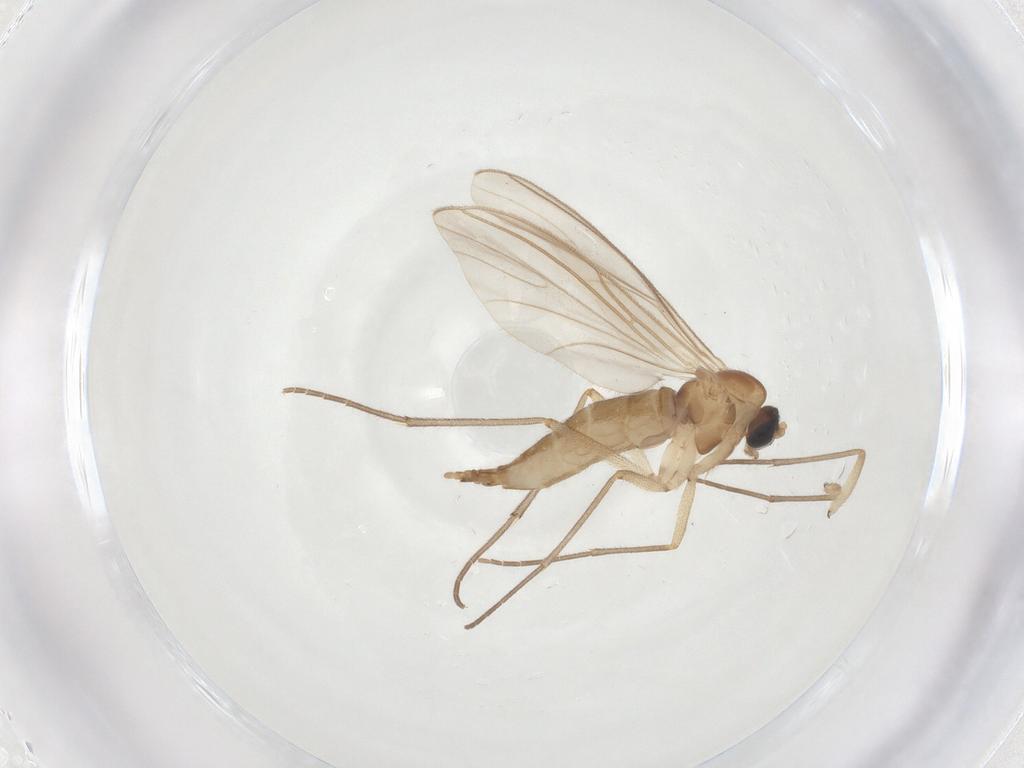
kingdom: Animalia
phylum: Arthropoda
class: Insecta
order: Diptera
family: Sciaridae
